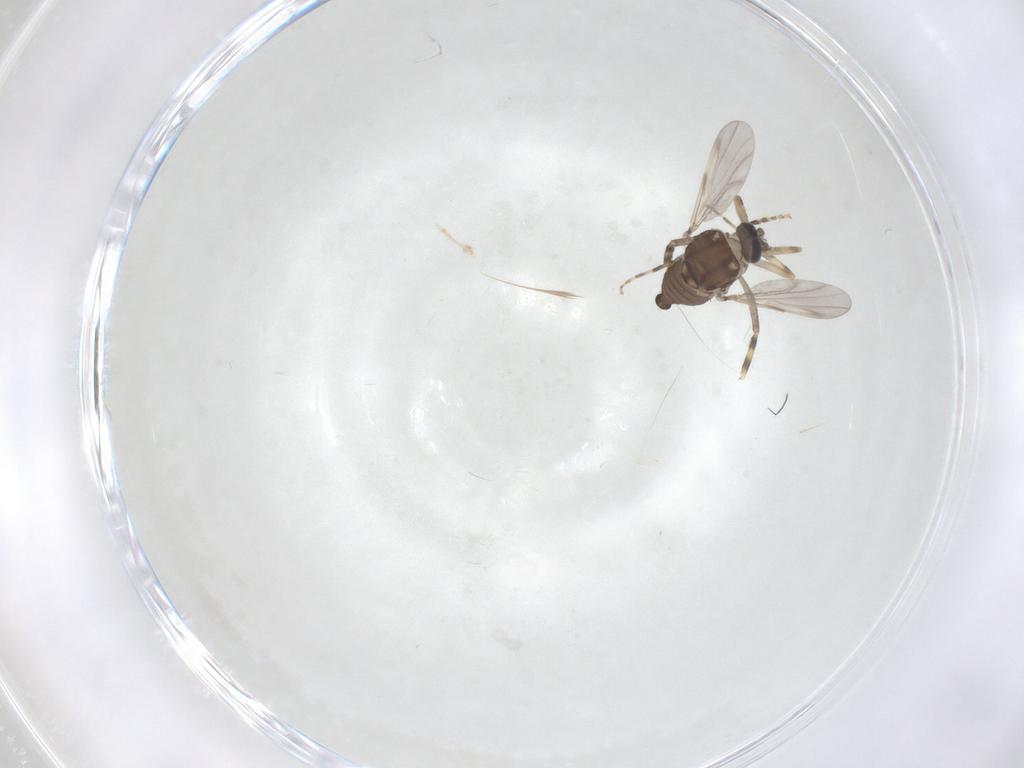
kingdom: Animalia
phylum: Arthropoda
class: Insecta
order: Diptera
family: Ceratopogonidae
